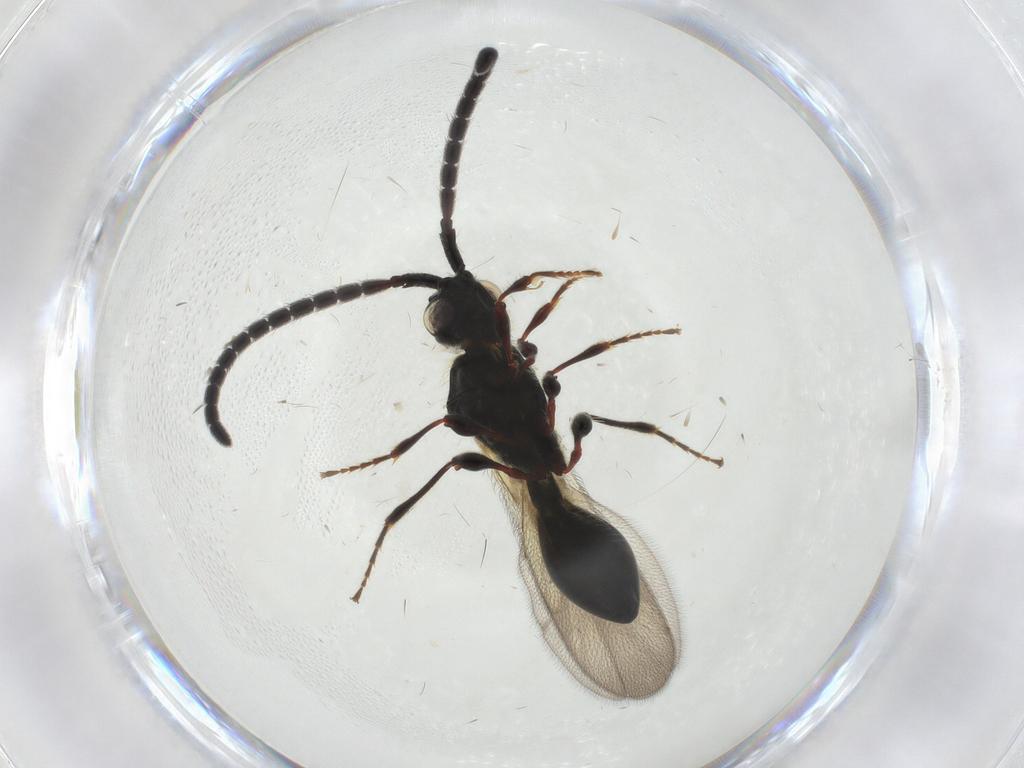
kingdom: Animalia
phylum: Arthropoda
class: Insecta
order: Hymenoptera
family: Diapriidae
